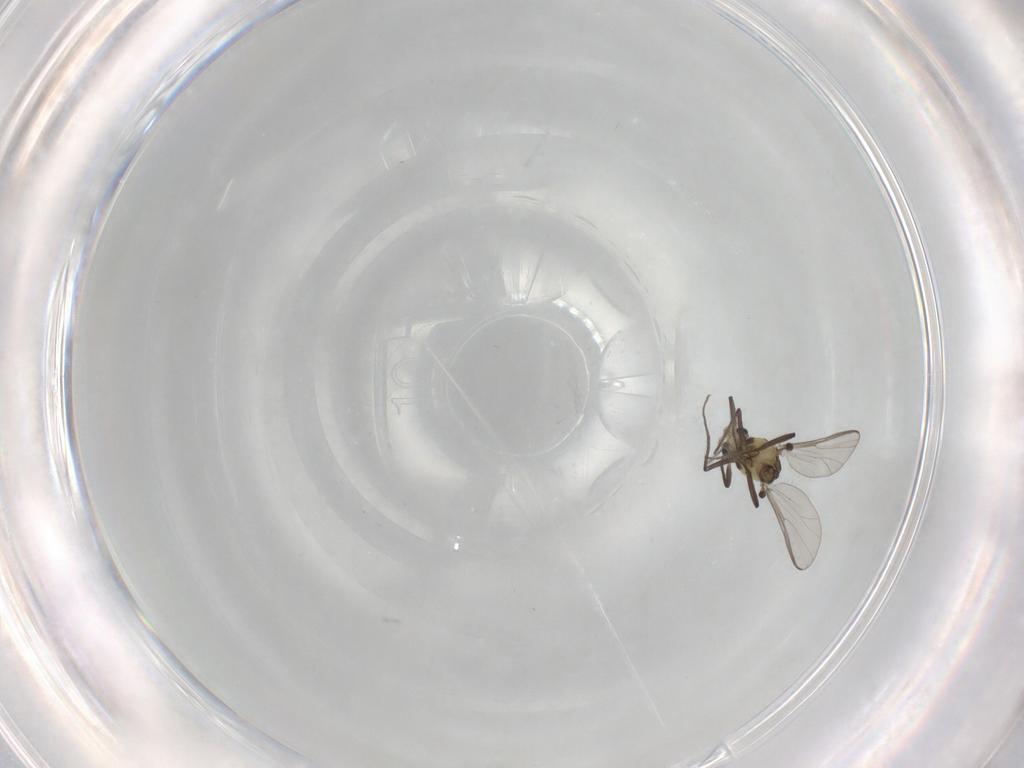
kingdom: Animalia
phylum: Arthropoda
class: Insecta
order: Diptera
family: Chironomidae
